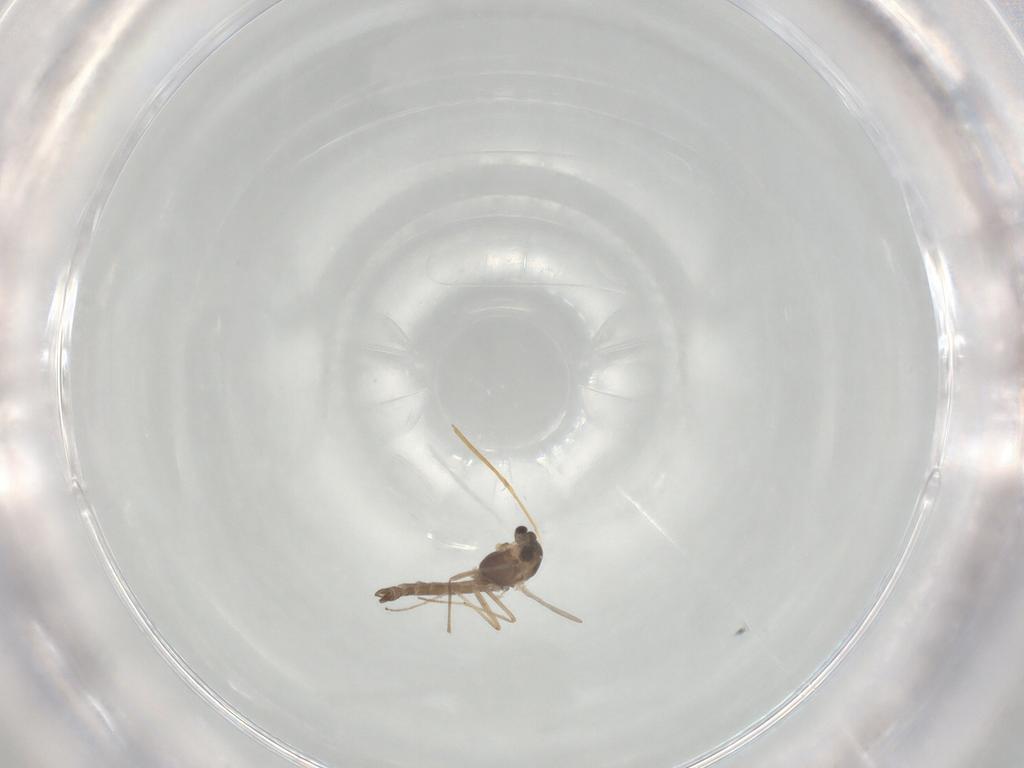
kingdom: Animalia
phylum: Arthropoda
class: Insecta
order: Diptera
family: Chironomidae
